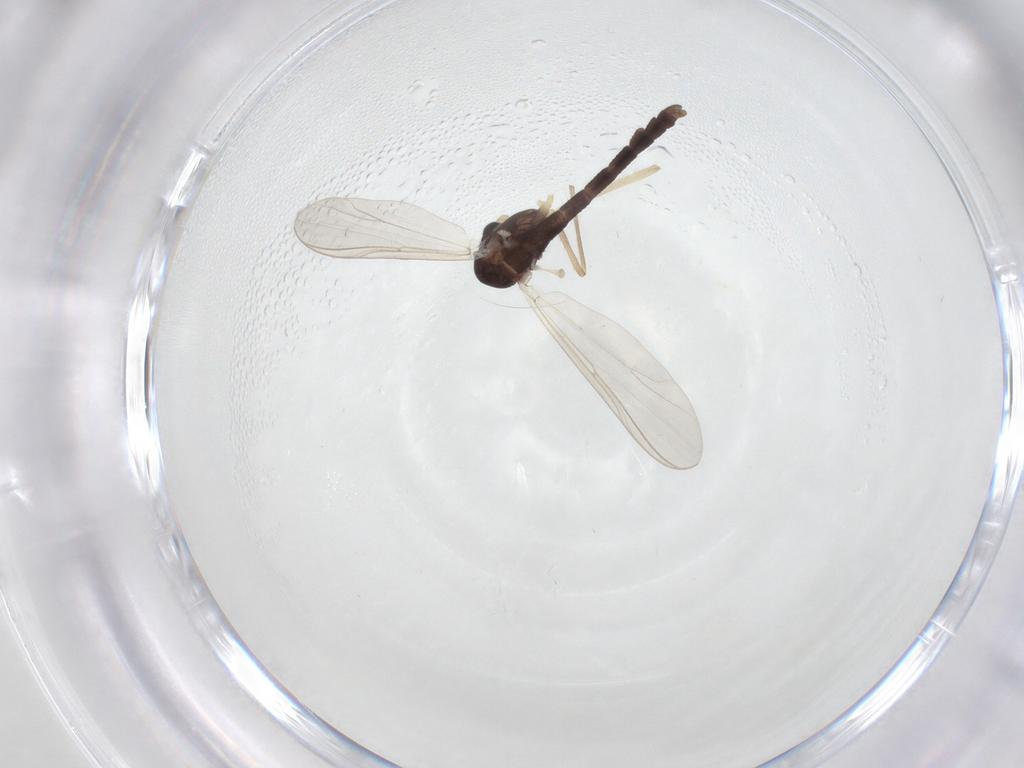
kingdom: Animalia
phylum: Arthropoda
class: Insecta
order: Diptera
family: Chironomidae
